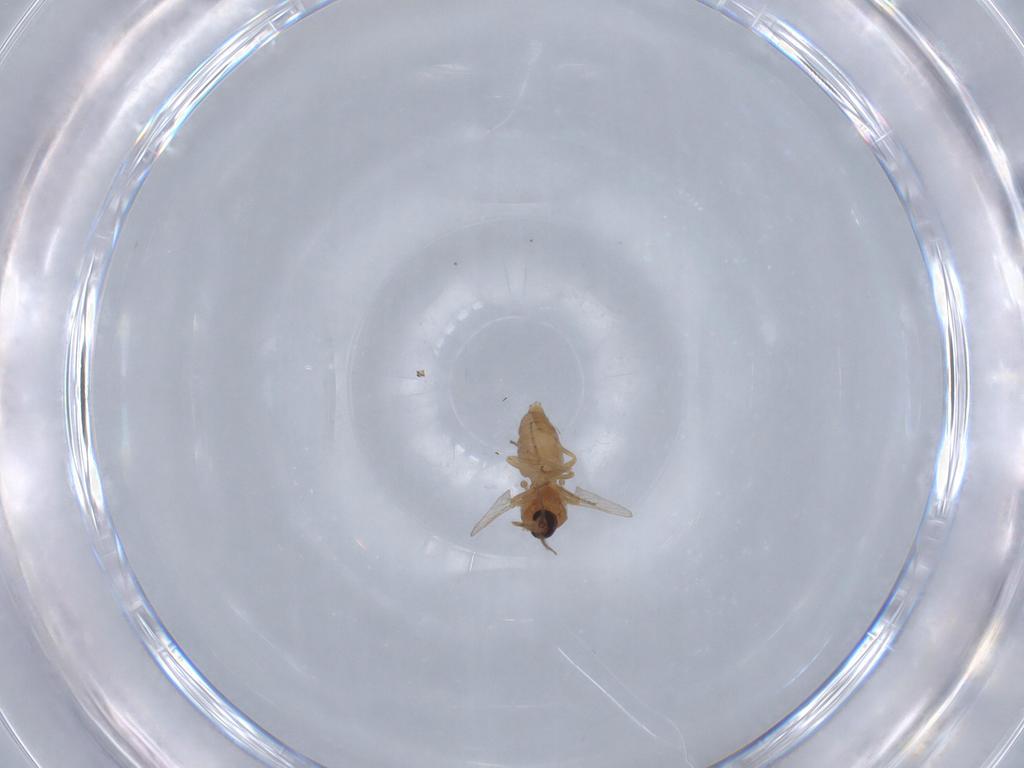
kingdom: Animalia
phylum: Arthropoda
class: Insecta
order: Diptera
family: Ceratopogonidae
